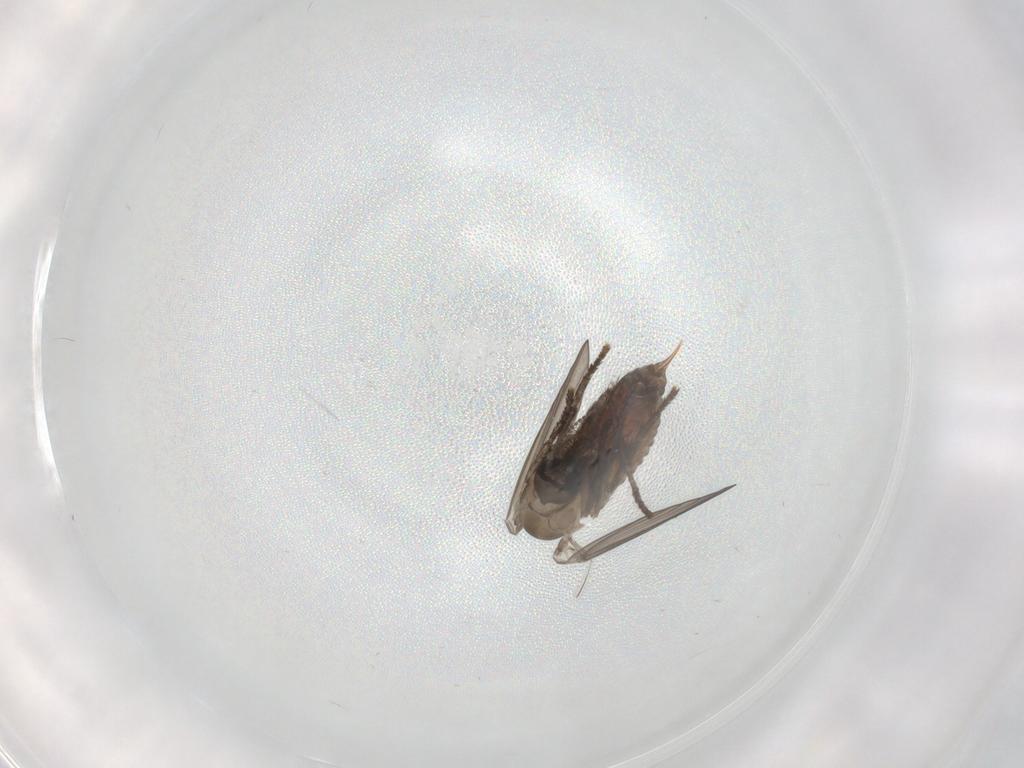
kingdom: Animalia
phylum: Arthropoda
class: Insecta
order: Diptera
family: Psychodidae
